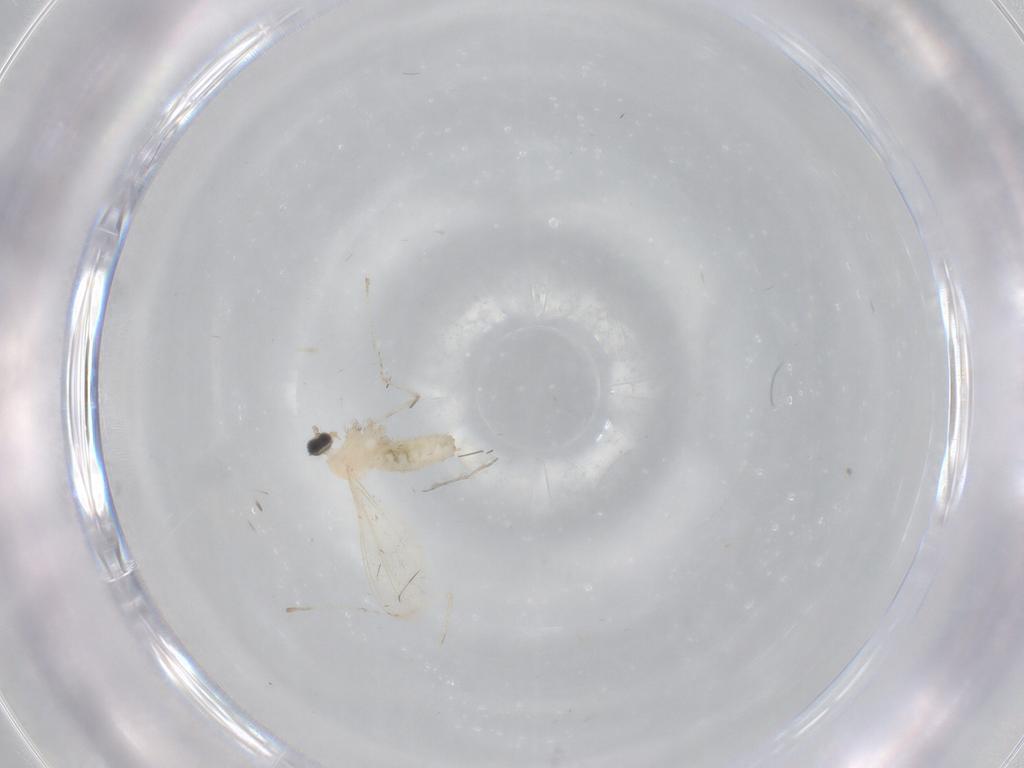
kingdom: Animalia
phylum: Arthropoda
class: Insecta
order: Diptera
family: Cecidomyiidae
